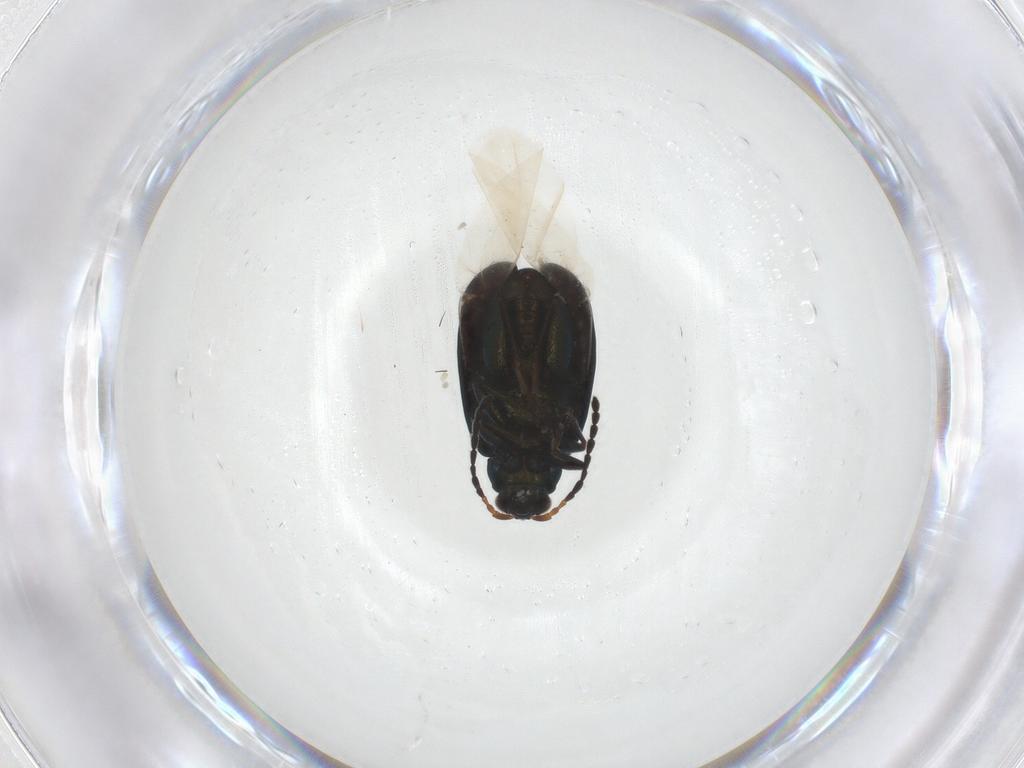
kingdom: Animalia
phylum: Arthropoda
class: Insecta
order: Coleoptera
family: Chrysomelidae
